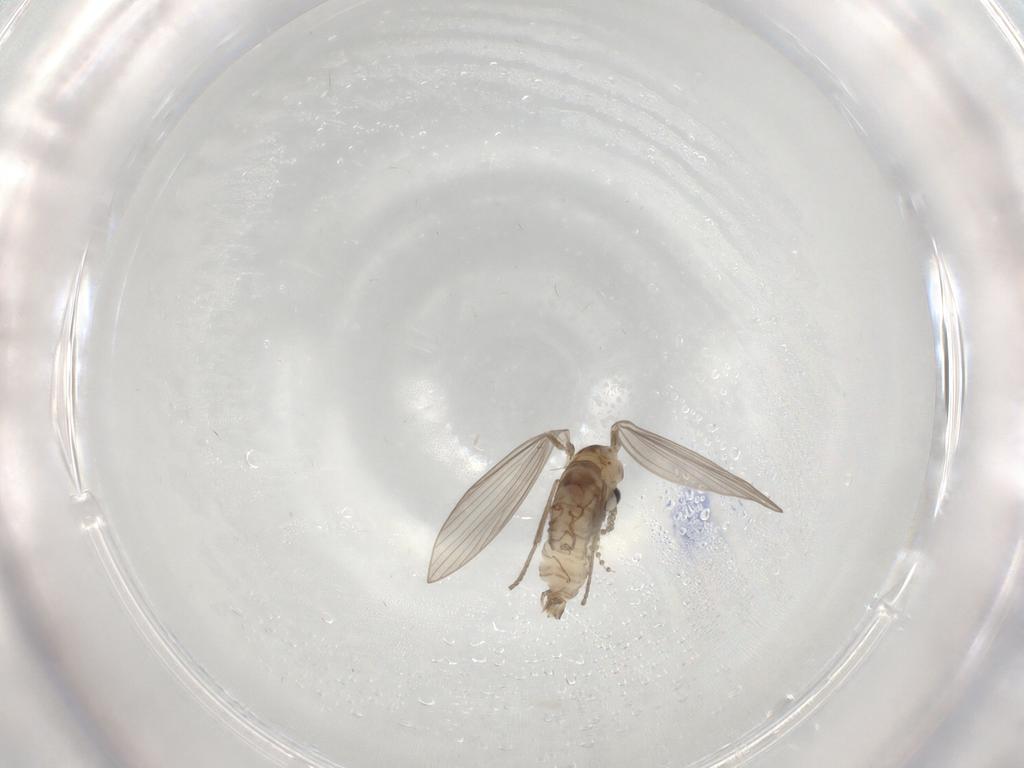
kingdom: Animalia
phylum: Arthropoda
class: Insecta
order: Diptera
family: Psychodidae
